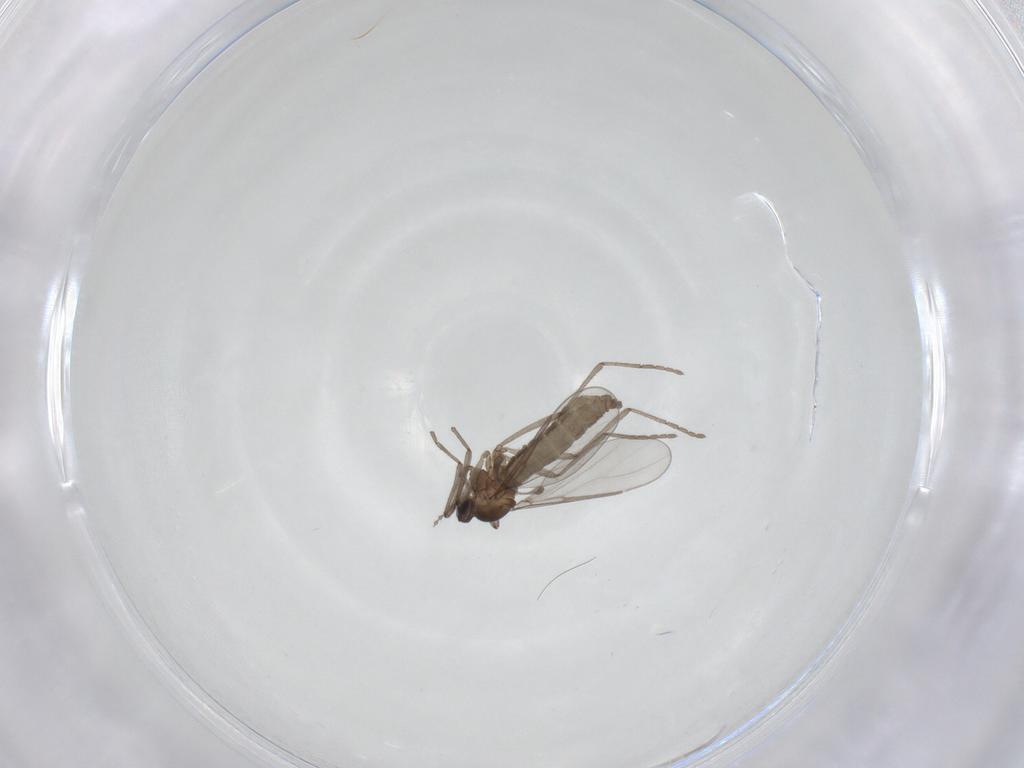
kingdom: Animalia
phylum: Arthropoda
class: Insecta
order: Diptera
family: Cecidomyiidae
